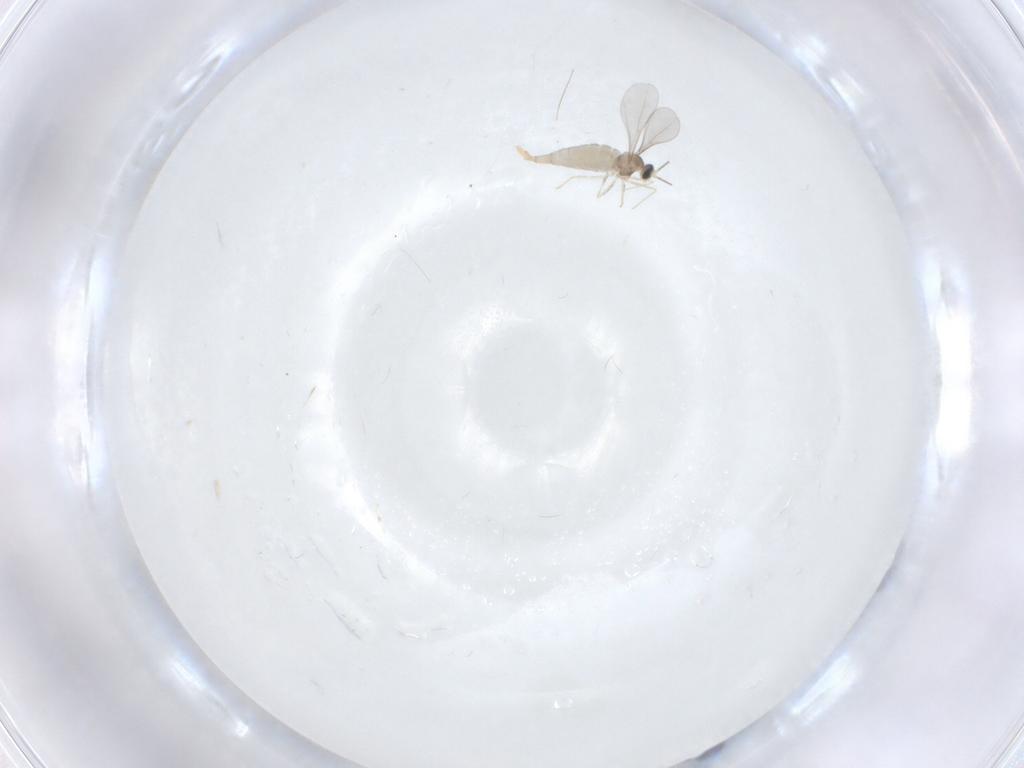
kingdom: Animalia
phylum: Arthropoda
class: Insecta
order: Diptera
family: Cecidomyiidae
